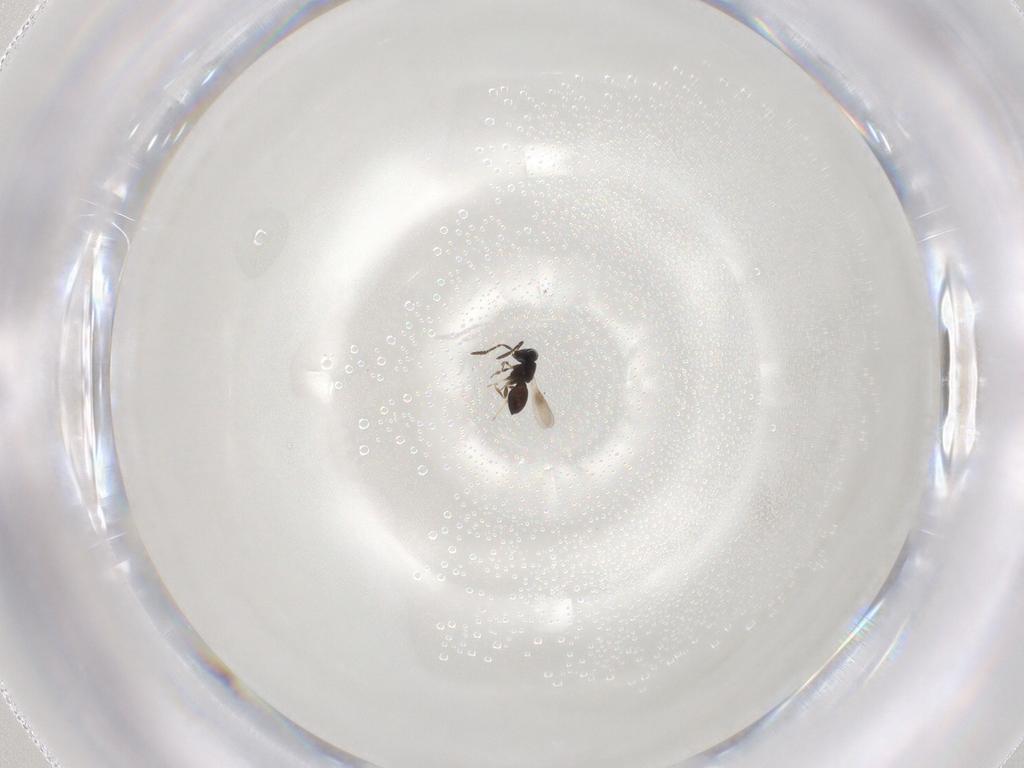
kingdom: Animalia
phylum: Arthropoda
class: Insecta
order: Hymenoptera
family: Scelionidae
